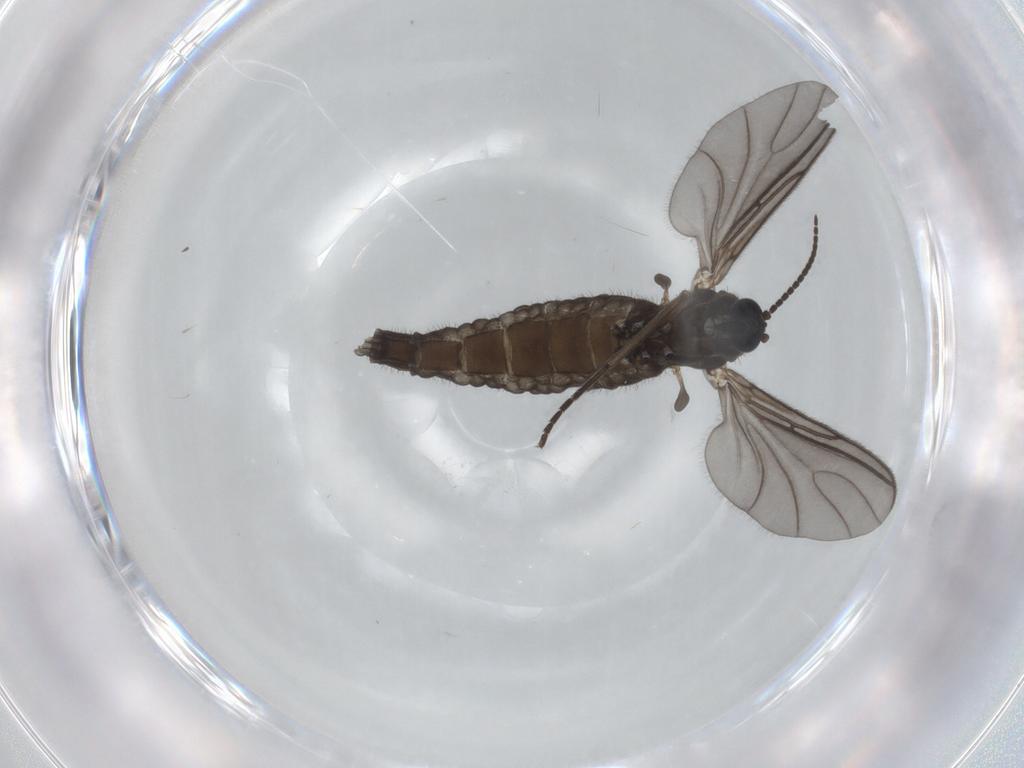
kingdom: Animalia
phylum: Arthropoda
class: Insecta
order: Diptera
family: Sciaridae
